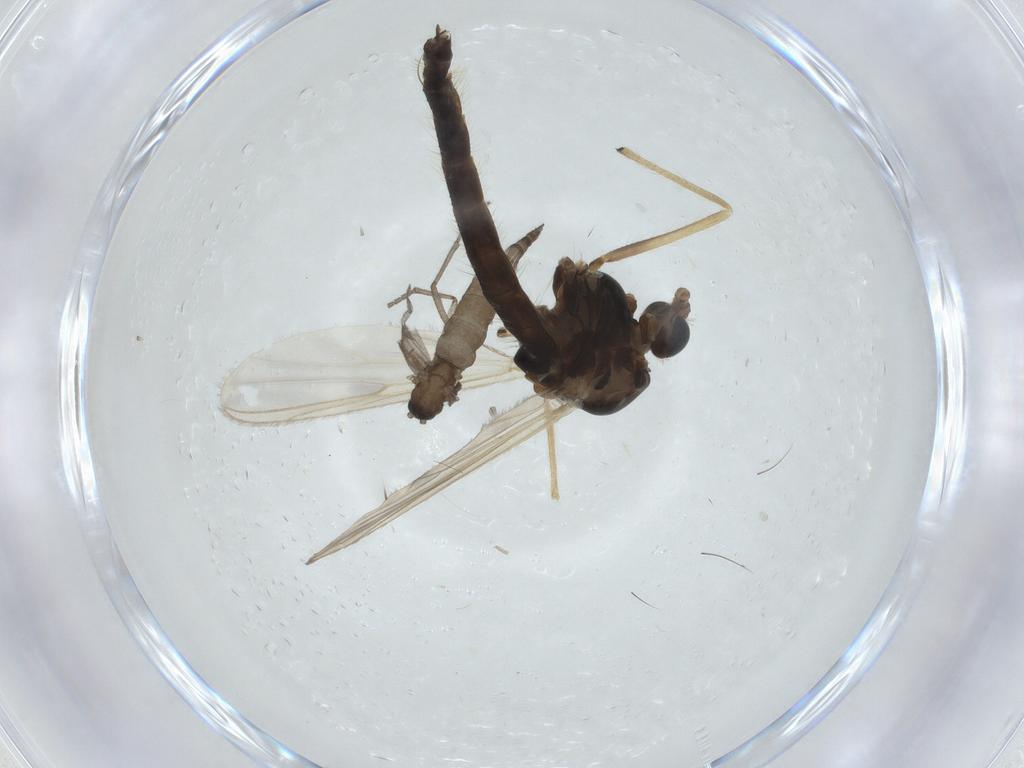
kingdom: Animalia
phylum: Arthropoda
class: Insecta
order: Diptera
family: Sciaridae
